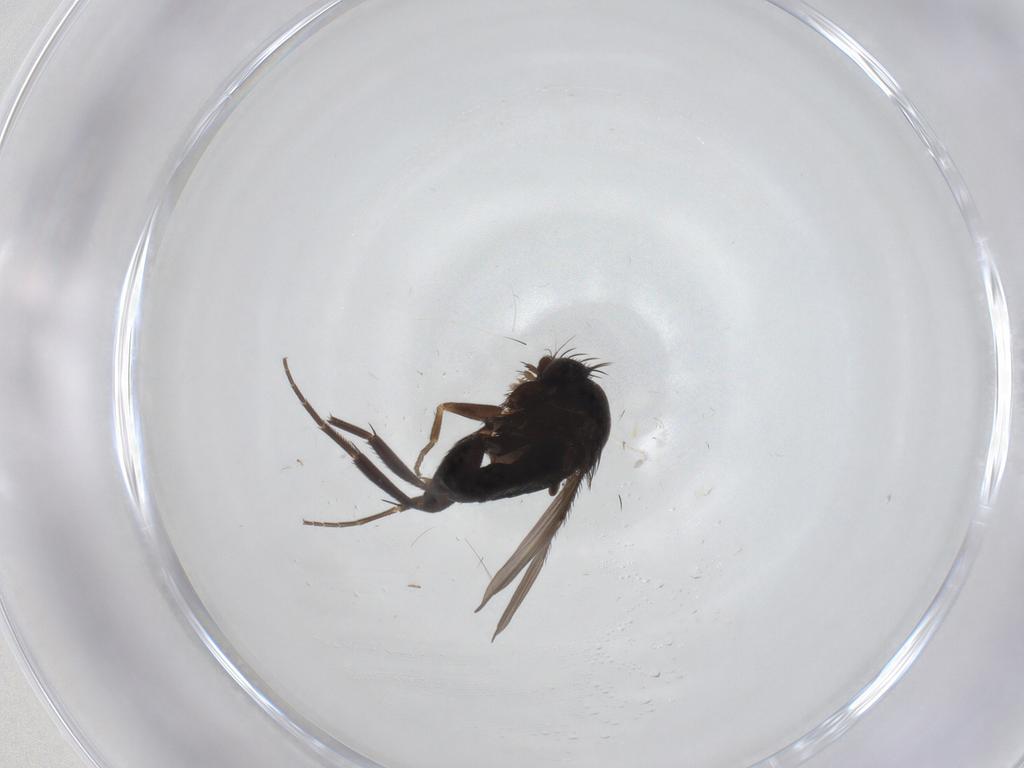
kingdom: Animalia
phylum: Arthropoda
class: Insecta
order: Diptera
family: Phoridae
